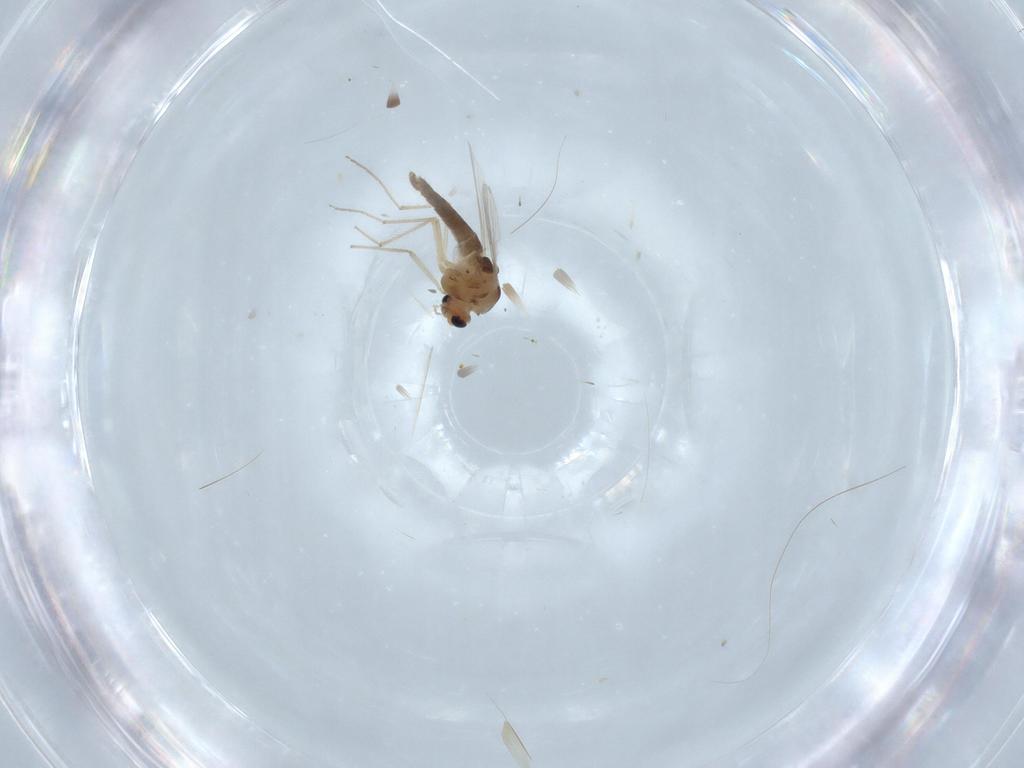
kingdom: Animalia
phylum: Arthropoda
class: Insecta
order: Diptera
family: Chironomidae
